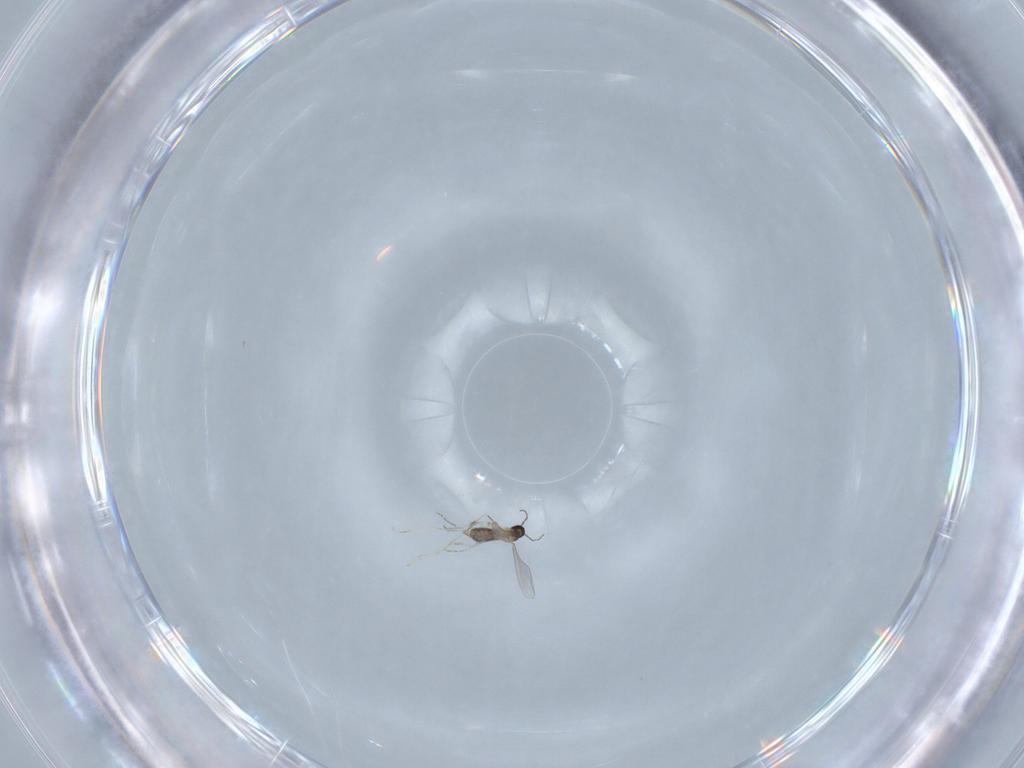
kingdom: Animalia
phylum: Arthropoda
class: Insecta
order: Diptera
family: Cecidomyiidae
